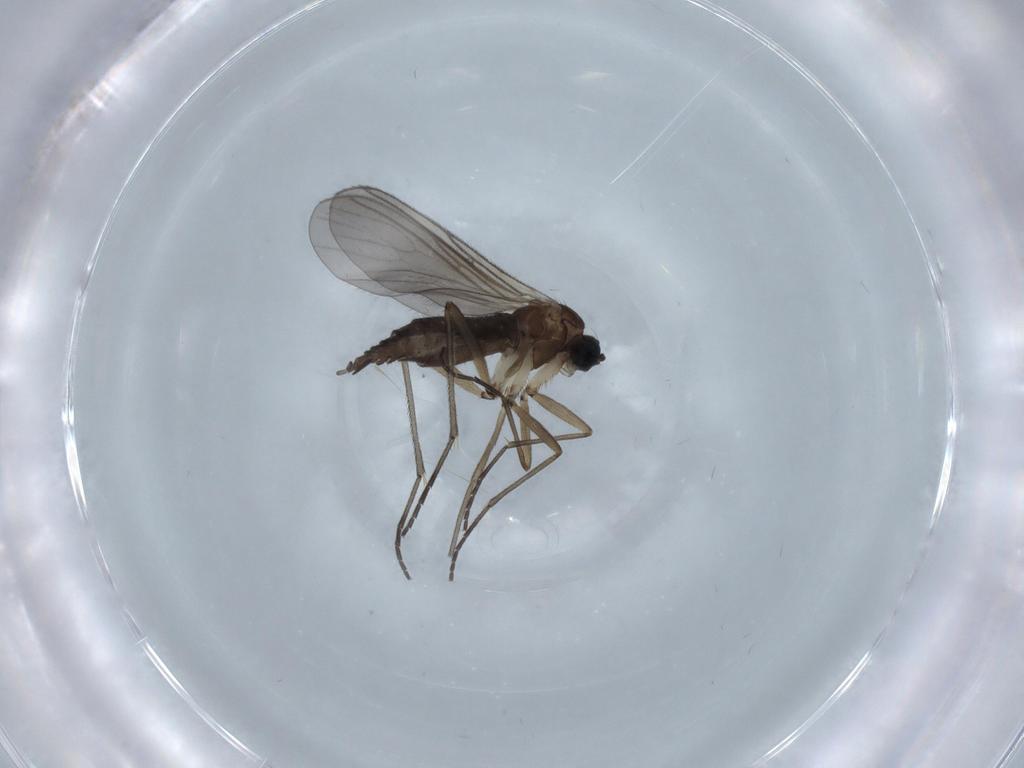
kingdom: Animalia
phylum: Arthropoda
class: Insecta
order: Diptera
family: Sciaridae
